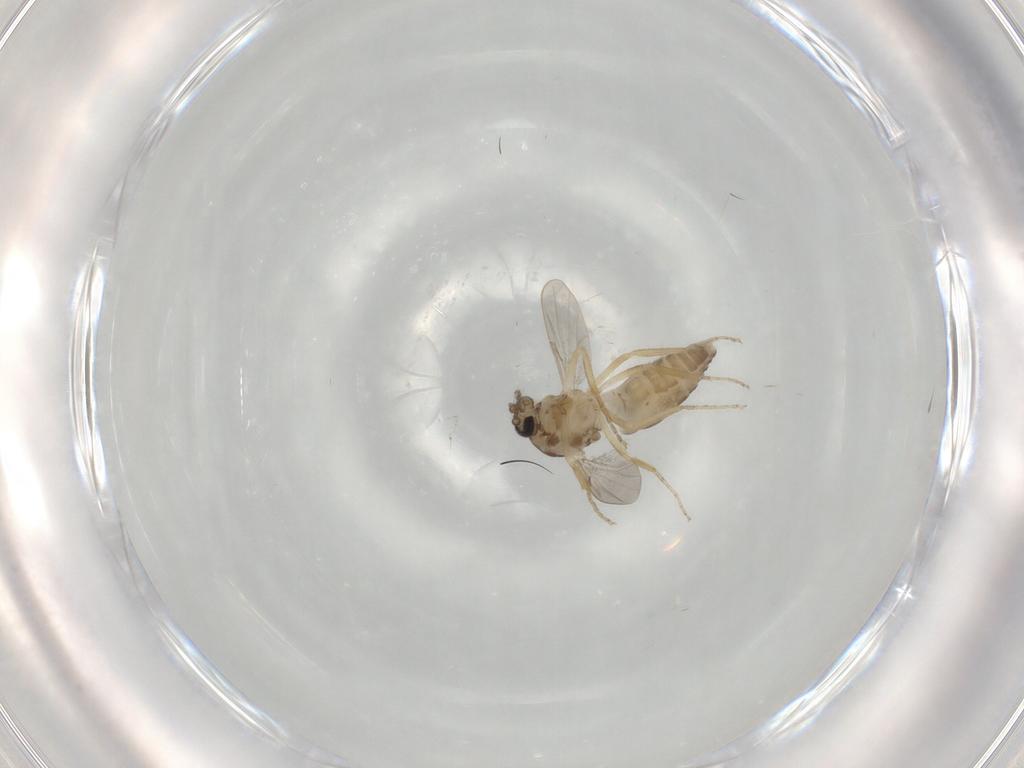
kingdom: Animalia
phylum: Arthropoda
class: Insecta
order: Diptera
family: Ceratopogonidae
